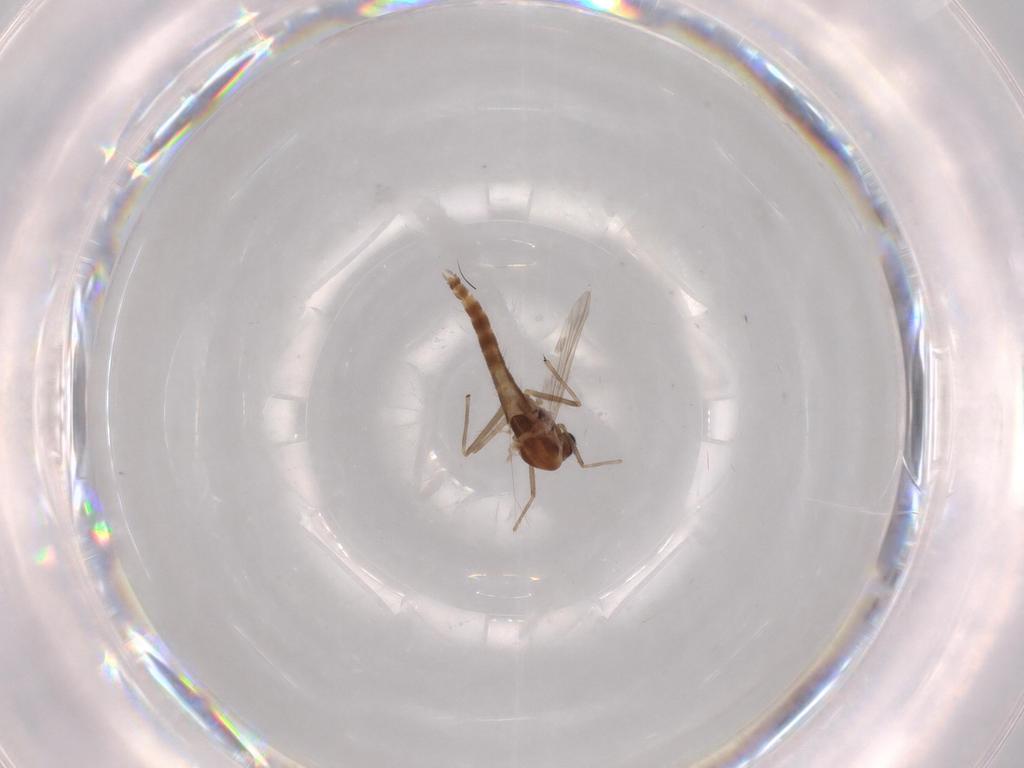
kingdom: Animalia
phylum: Arthropoda
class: Insecta
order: Diptera
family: Chironomidae
